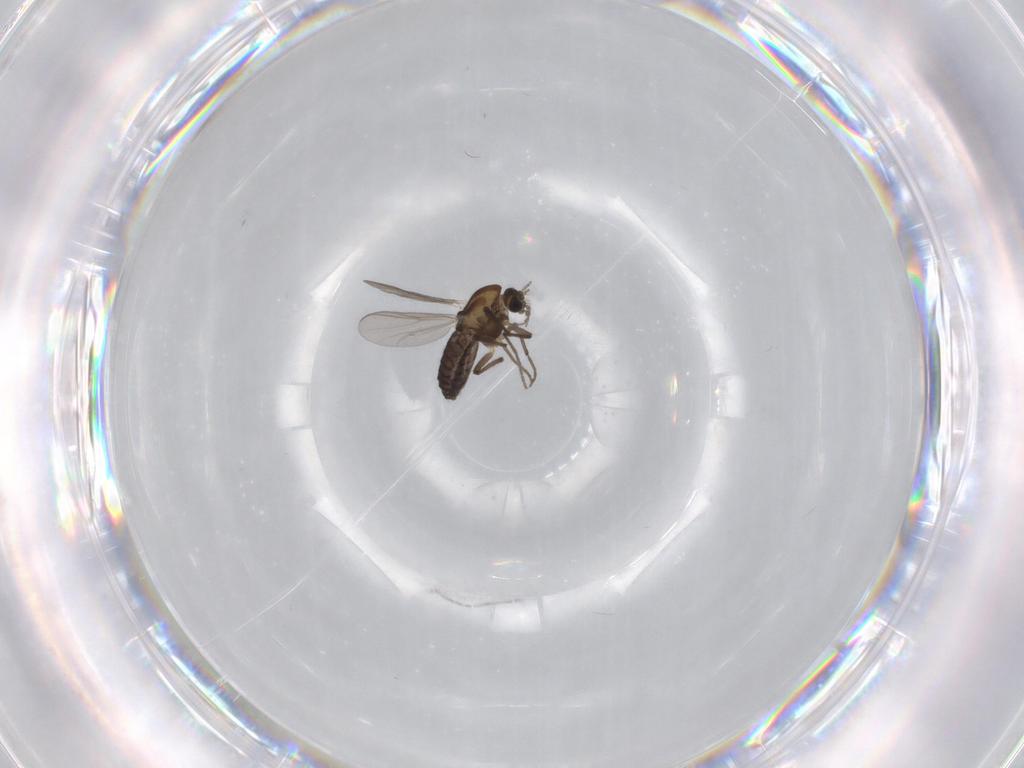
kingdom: Animalia
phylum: Arthropoda
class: Insecta
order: Diptera
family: Chironomidae
